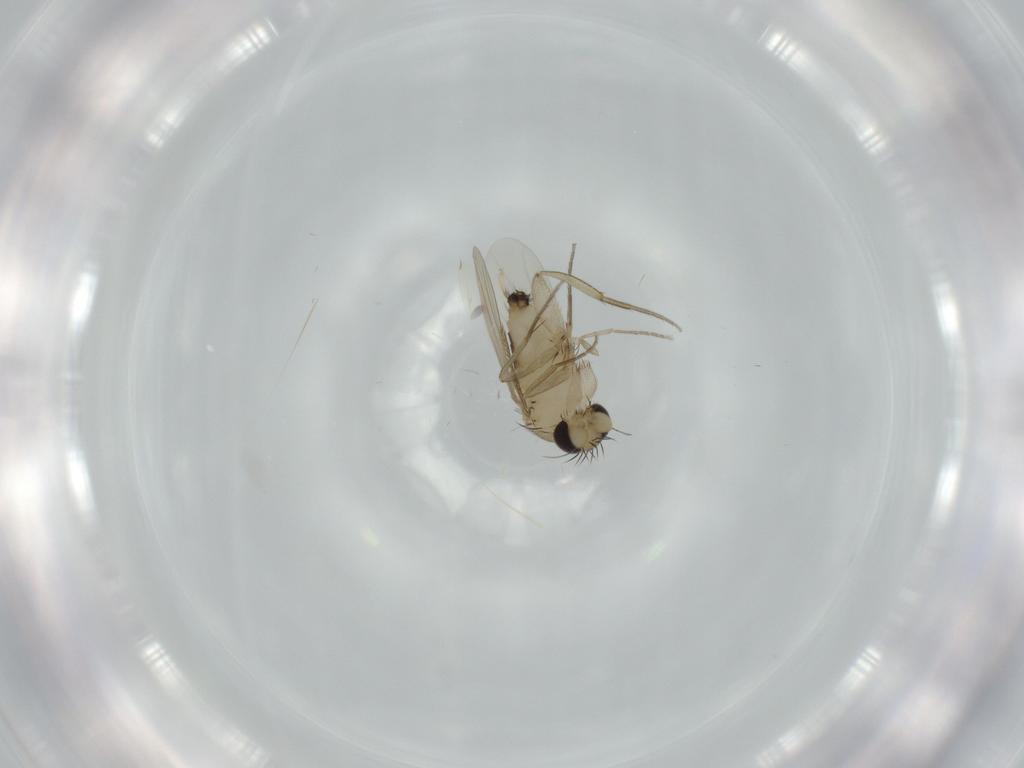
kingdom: Animalia
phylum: Arthropoda
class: Insecta
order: Diptera
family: Phoridae
